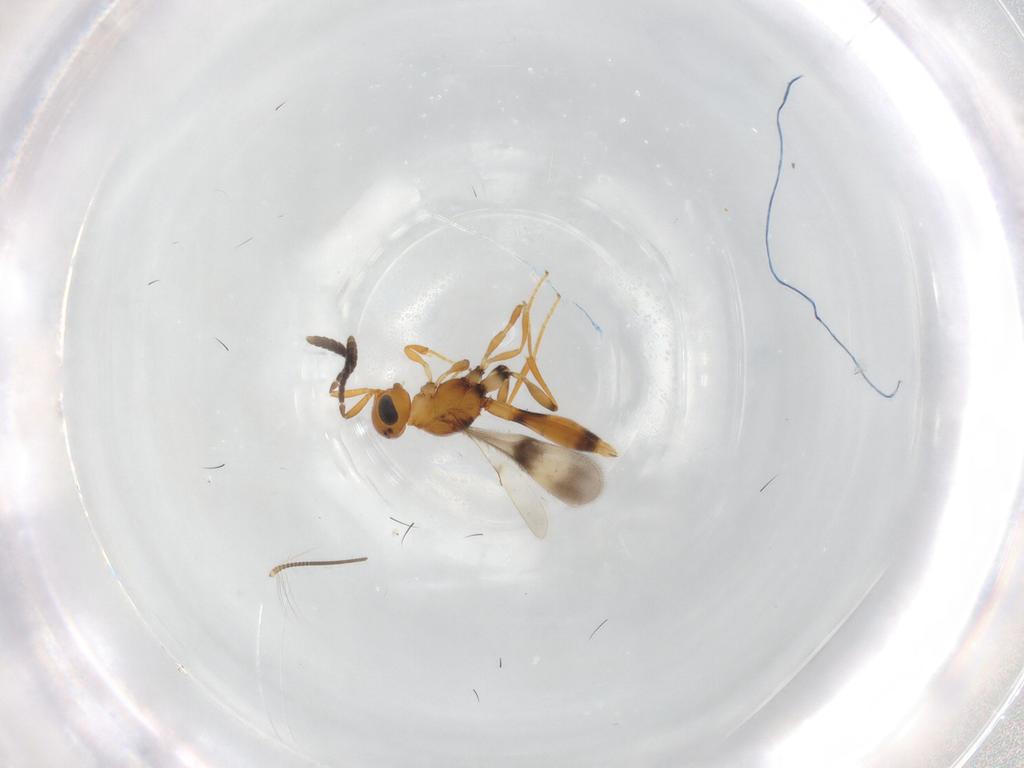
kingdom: Animalia
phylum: Arthropoda
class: Insecta
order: Hymenoptera
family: Scelionidae
